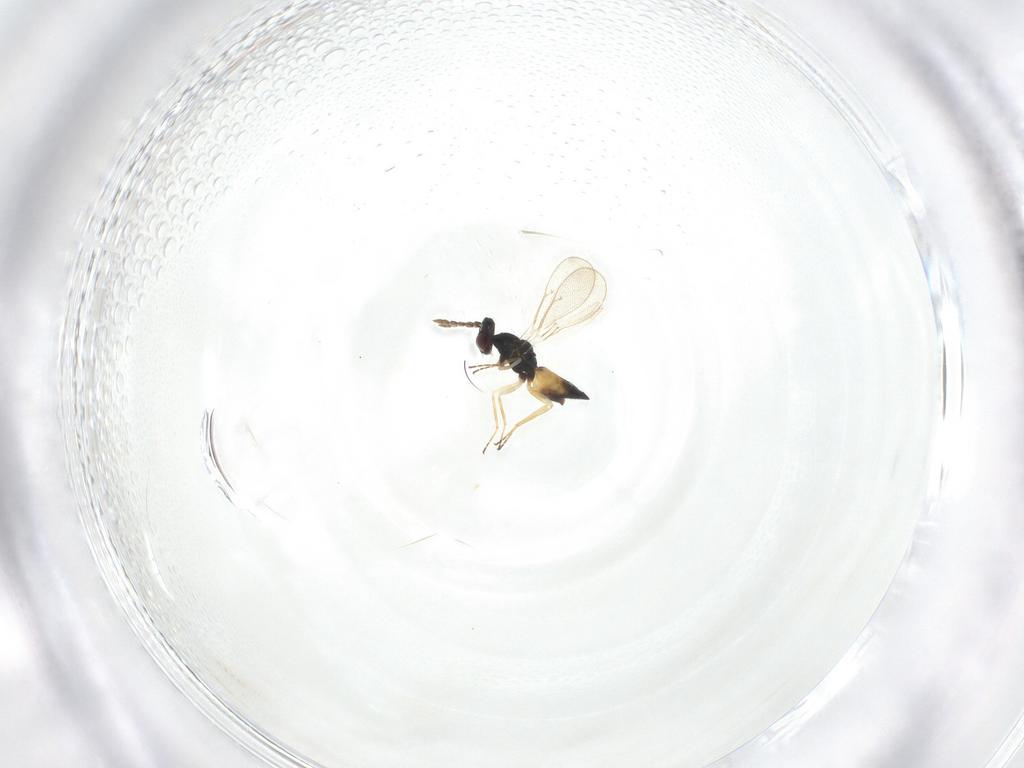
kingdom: Animalia
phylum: Arthropoda
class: Insecta
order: Hymenoptera
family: Eulophidae
